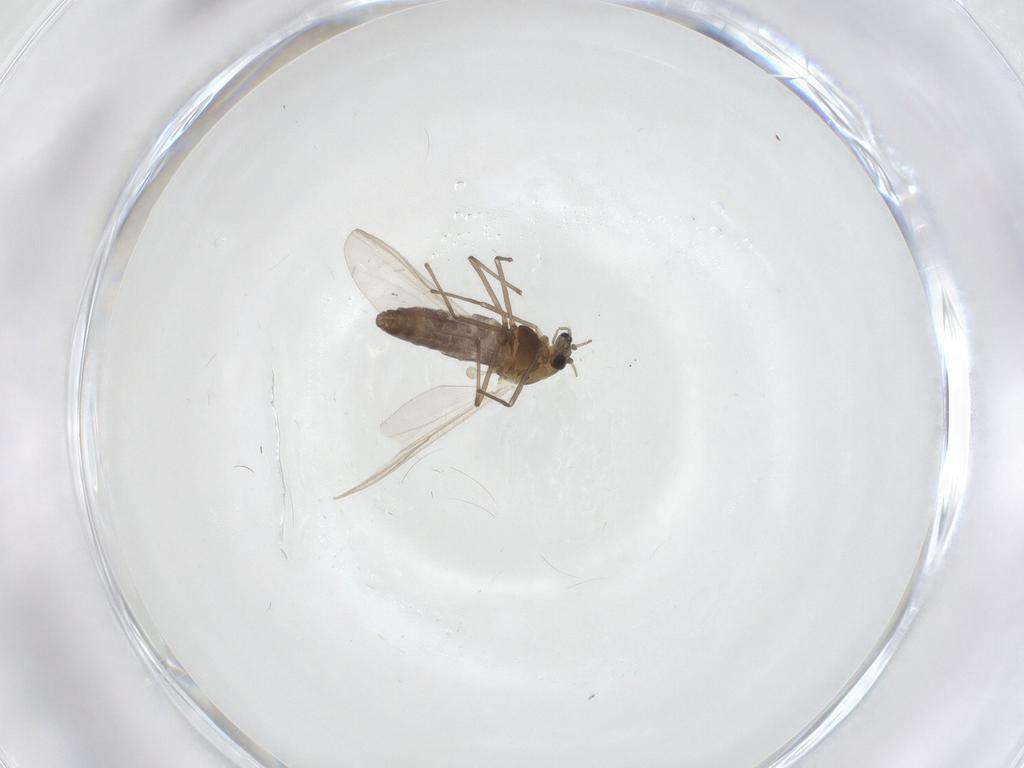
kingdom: Animalia
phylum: Arthropoda
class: Insecta
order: Diptera
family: Chironomidae
